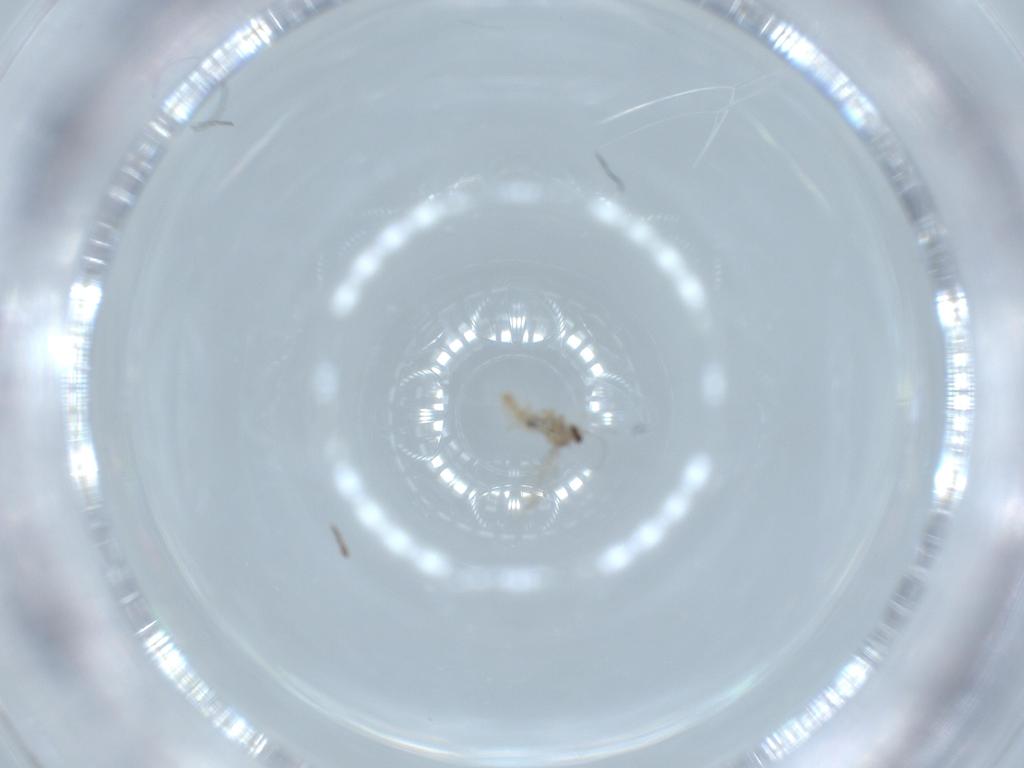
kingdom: Animalia
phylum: Arthropoda
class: Insecta
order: Diptera
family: Cecidomyiidae
